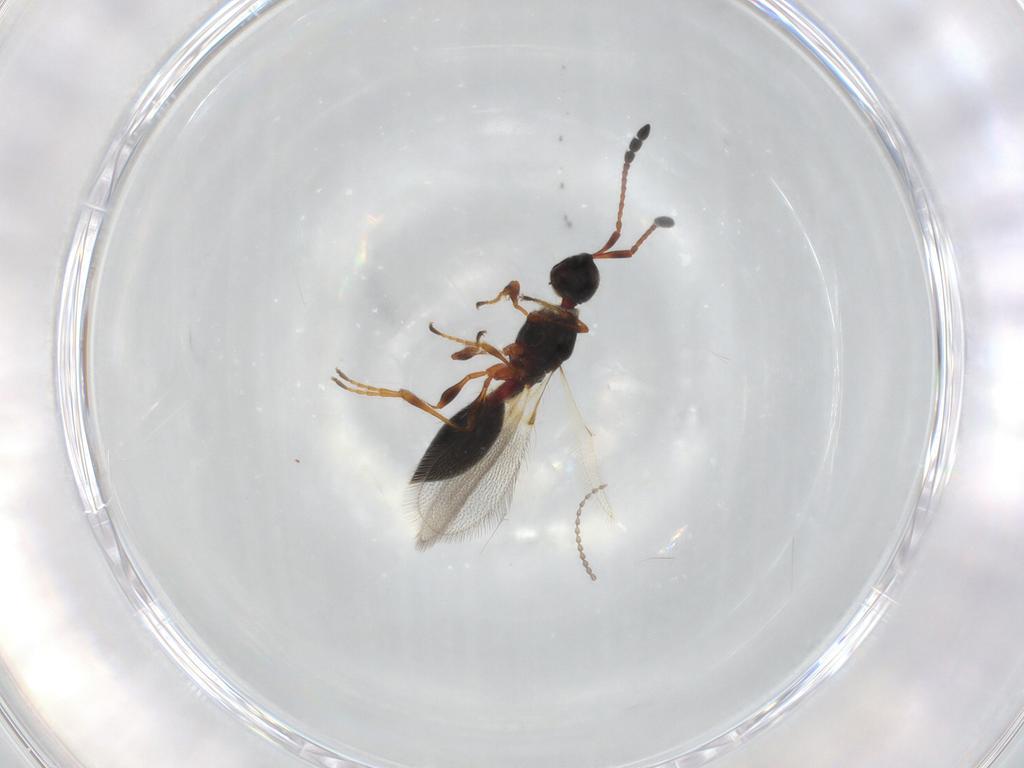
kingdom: Animalia
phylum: Arthropoda
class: Insecta
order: Hymenoptera
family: Diapriidae
